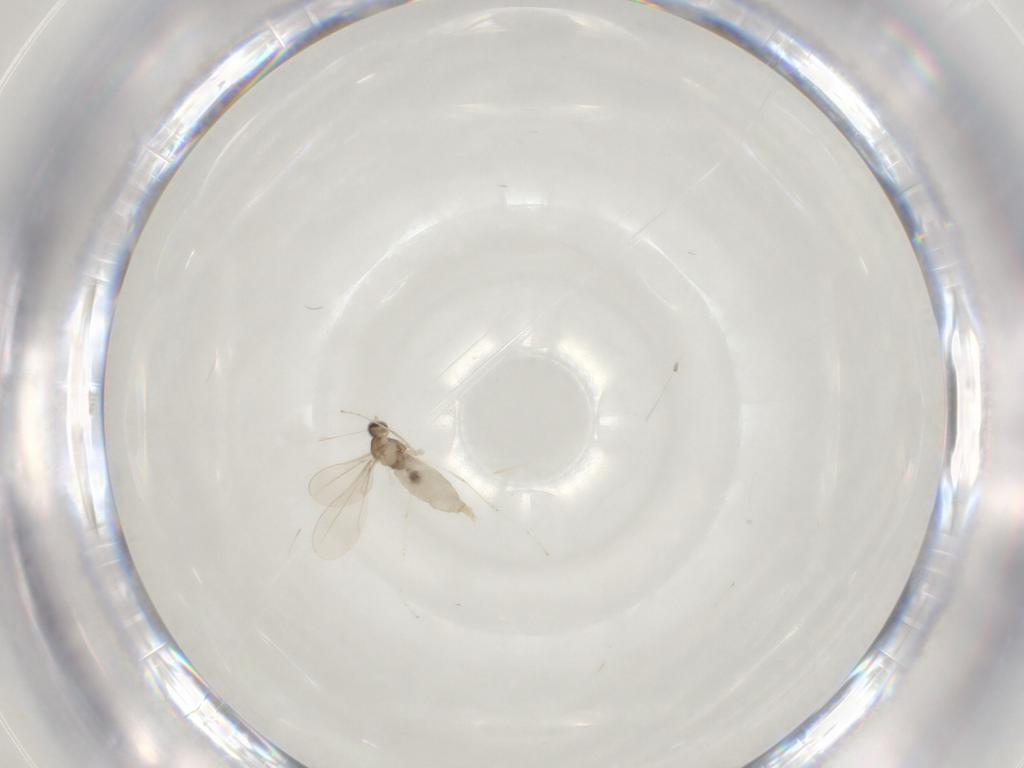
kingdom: Animalia
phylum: Arthropoda
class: Insecta
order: Diptera
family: Cecidomyiidae
